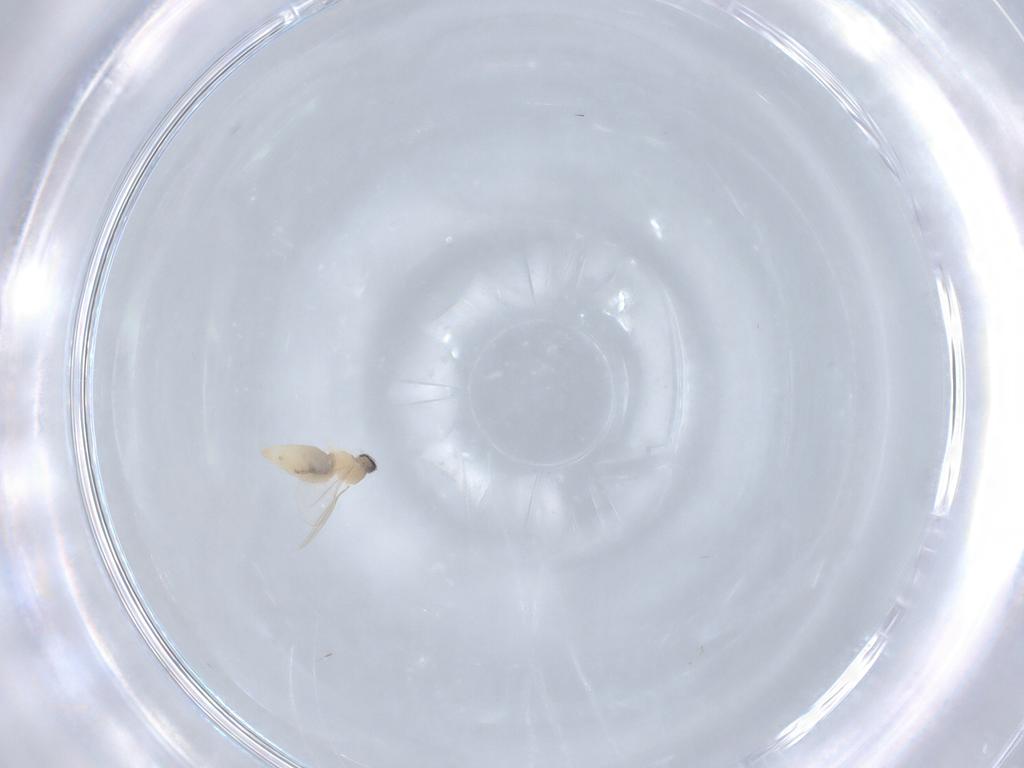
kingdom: Animalia
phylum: Arthropoda
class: Insecta
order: Diptera
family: Cecidomyiidae
